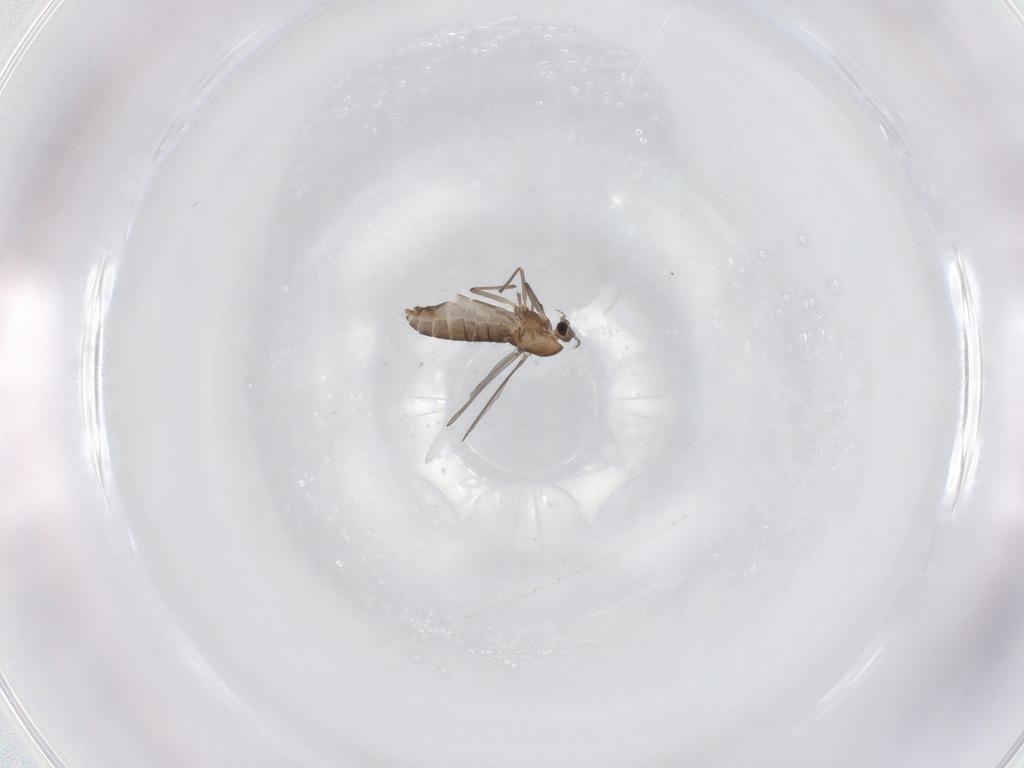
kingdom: Animalia
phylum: Arthropoda
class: Insecta
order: Diptera
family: Chironomidae
